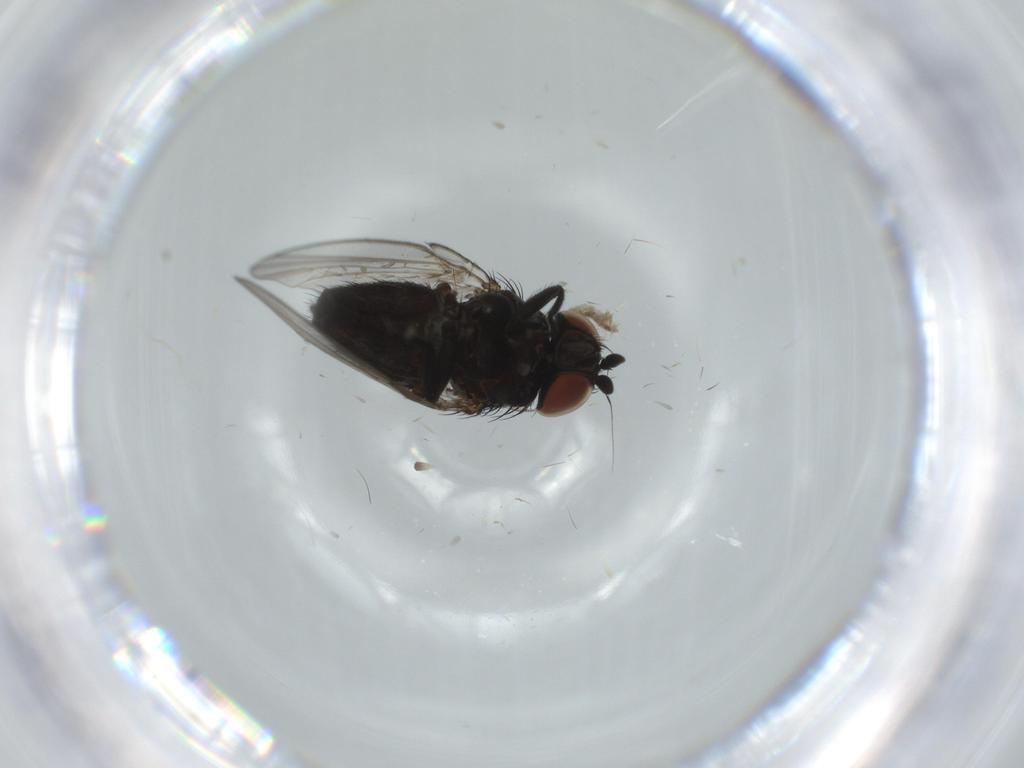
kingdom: Animalia
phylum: Arthropoda
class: Insecta
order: Diptera
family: Milichiidae
